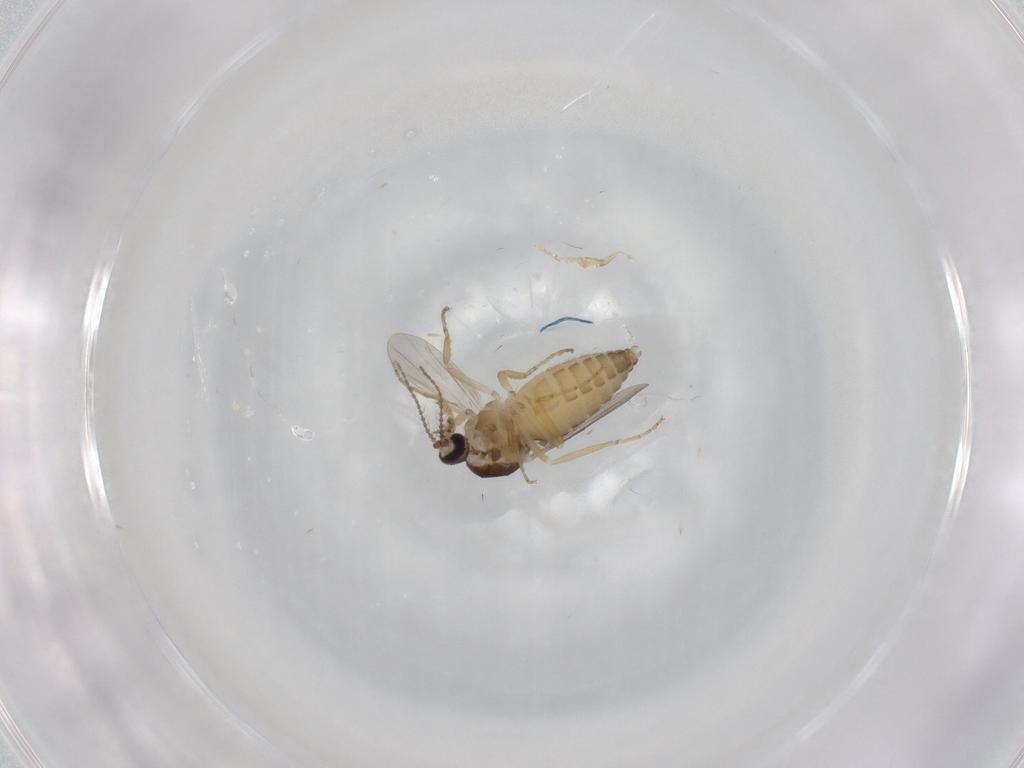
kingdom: Animalia
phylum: Arthropoda
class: Insecta
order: Diptera
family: Ceratopogonidae
